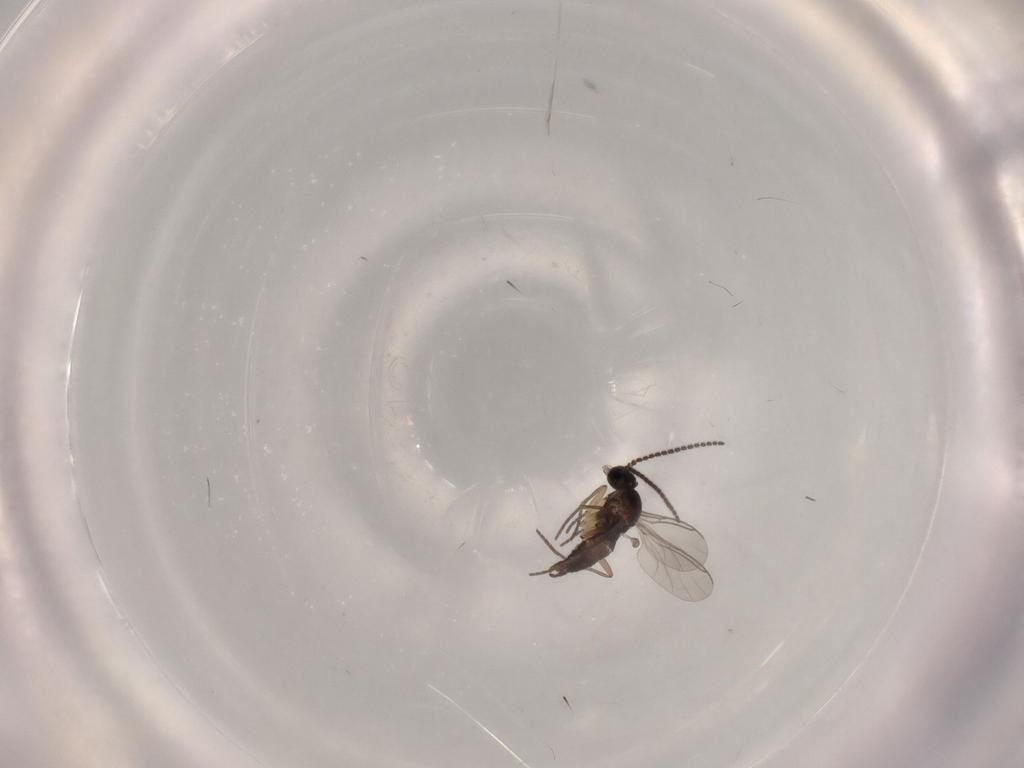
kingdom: Animalia
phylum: Arthropoda
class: Insecta
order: Diptera
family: Sciaridae
